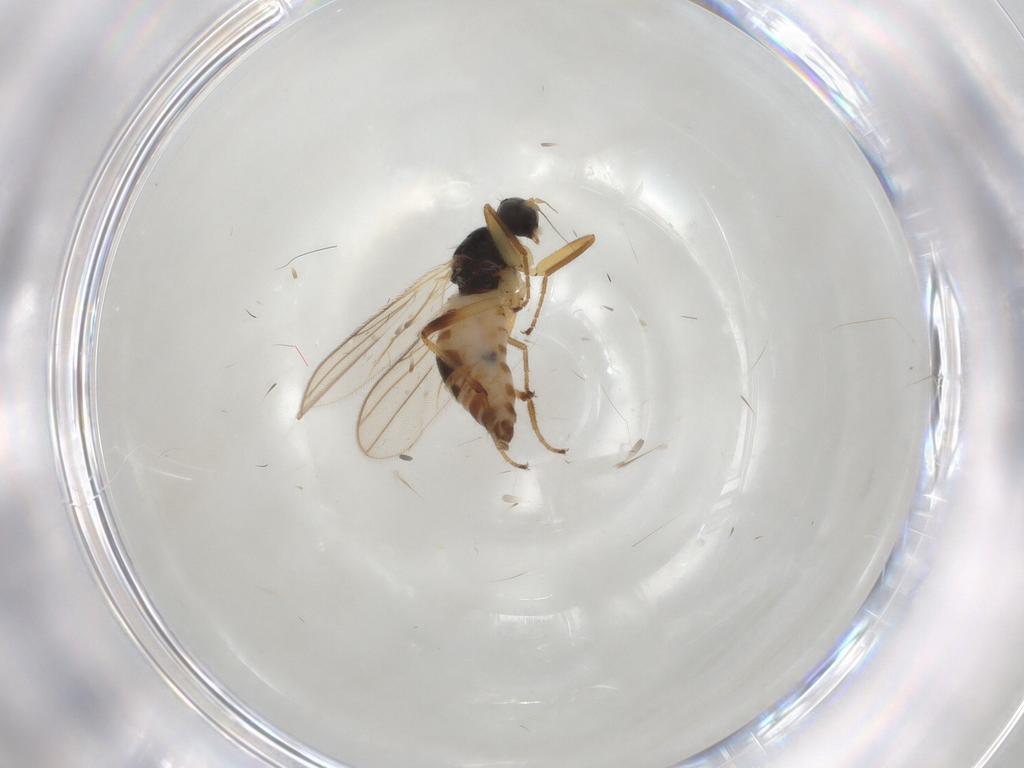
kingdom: Animalia
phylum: Arthropoda
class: Insecta
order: Diptera
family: Hybotidae
